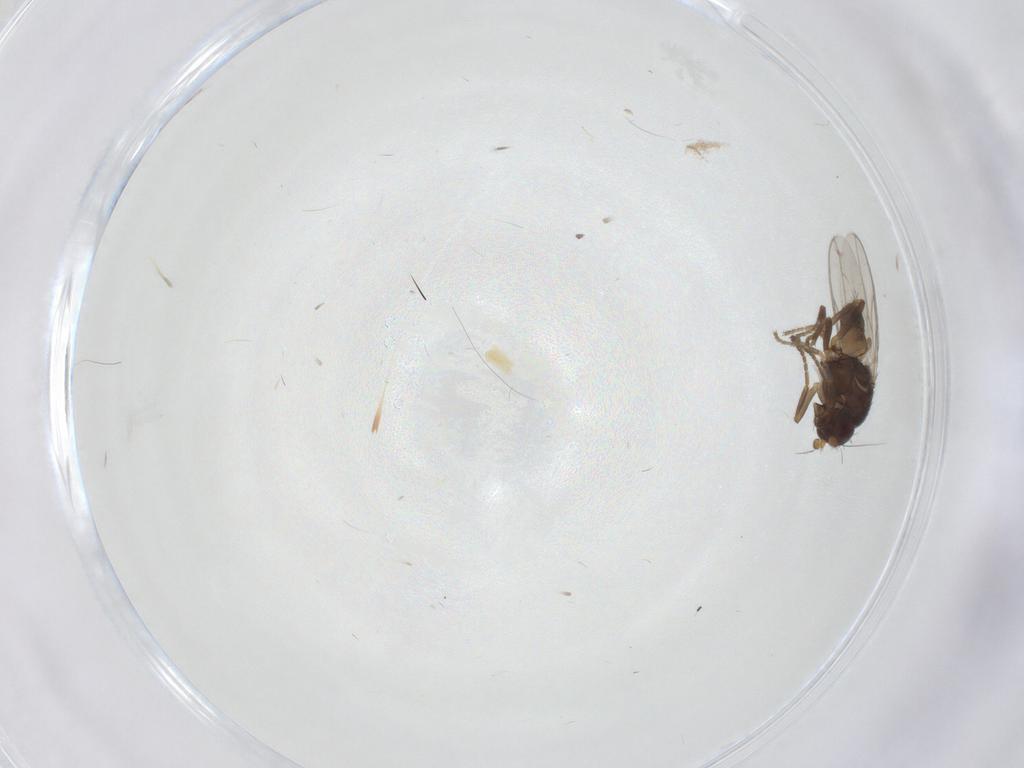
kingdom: Animalia
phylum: Arthropoda
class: Insecta
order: Diptera
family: Sphaeroceridae
